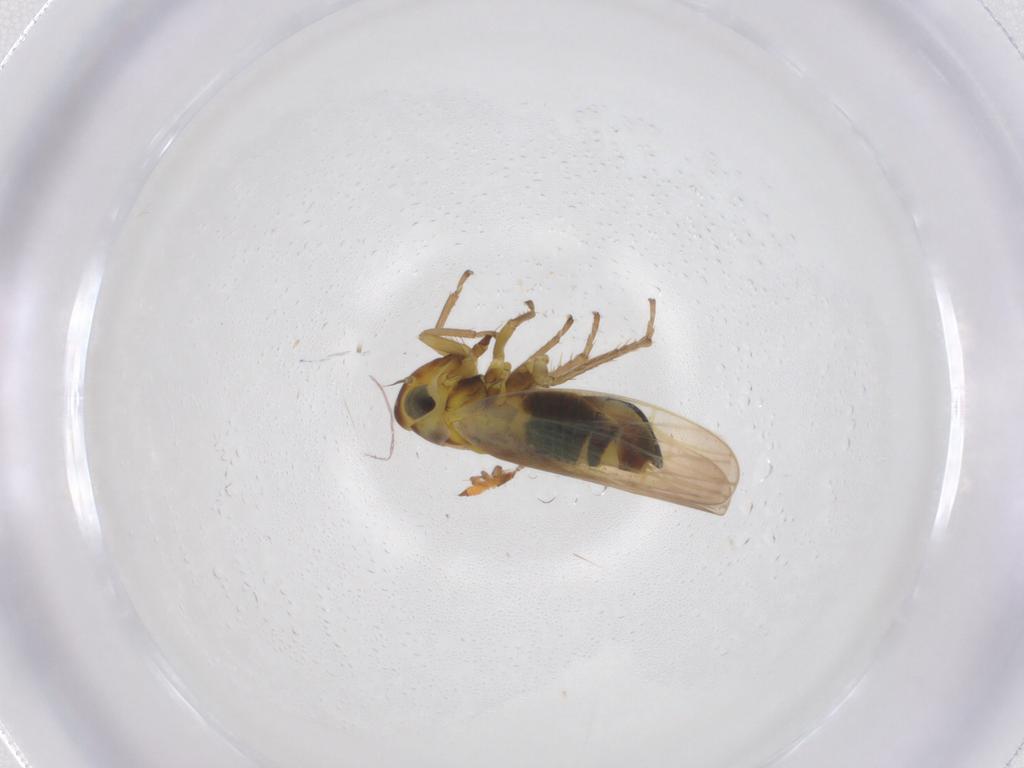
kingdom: Animalia
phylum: Arthropoda
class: Insecta
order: Hemiptera
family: Cicadellidae
